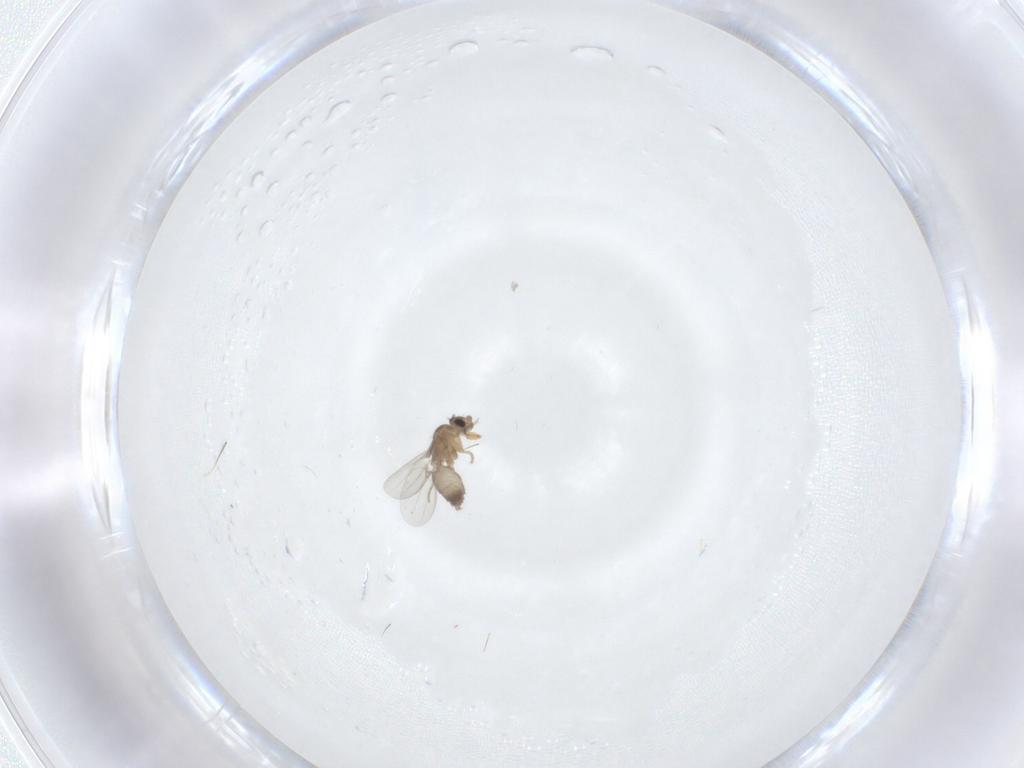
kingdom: Animalia
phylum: Arthropoda
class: Insecta
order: Diptera
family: Phoridae
